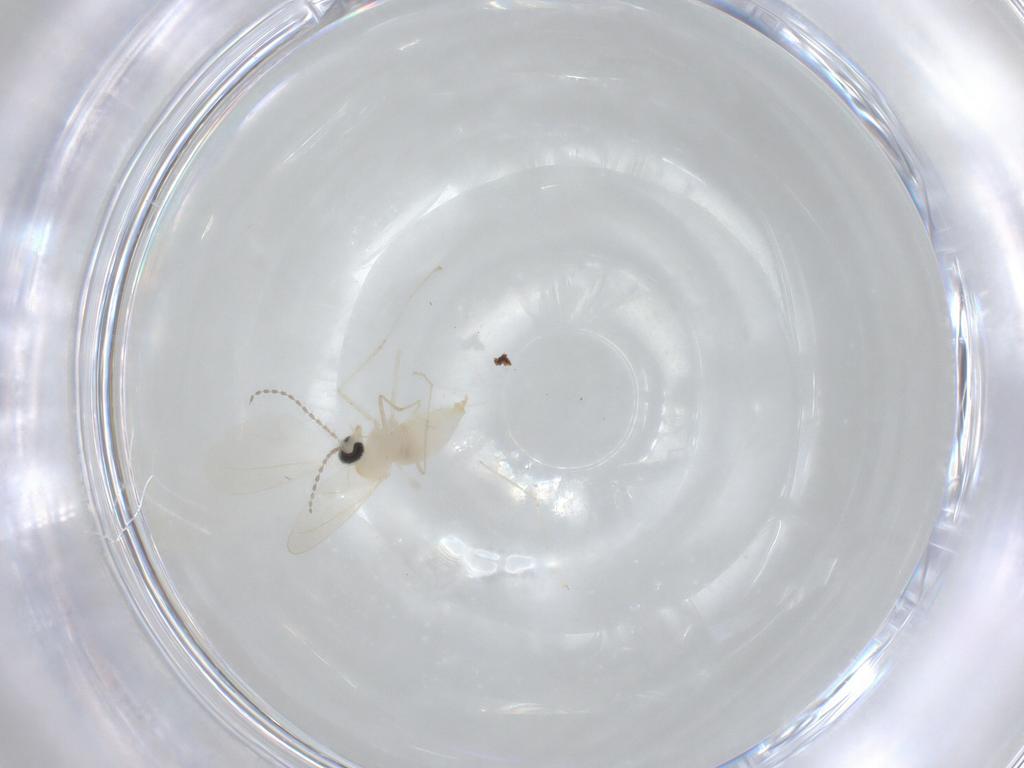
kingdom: Animalia
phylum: Arthropoda
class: Insecta
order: Diptera
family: Cecidomyiidae
